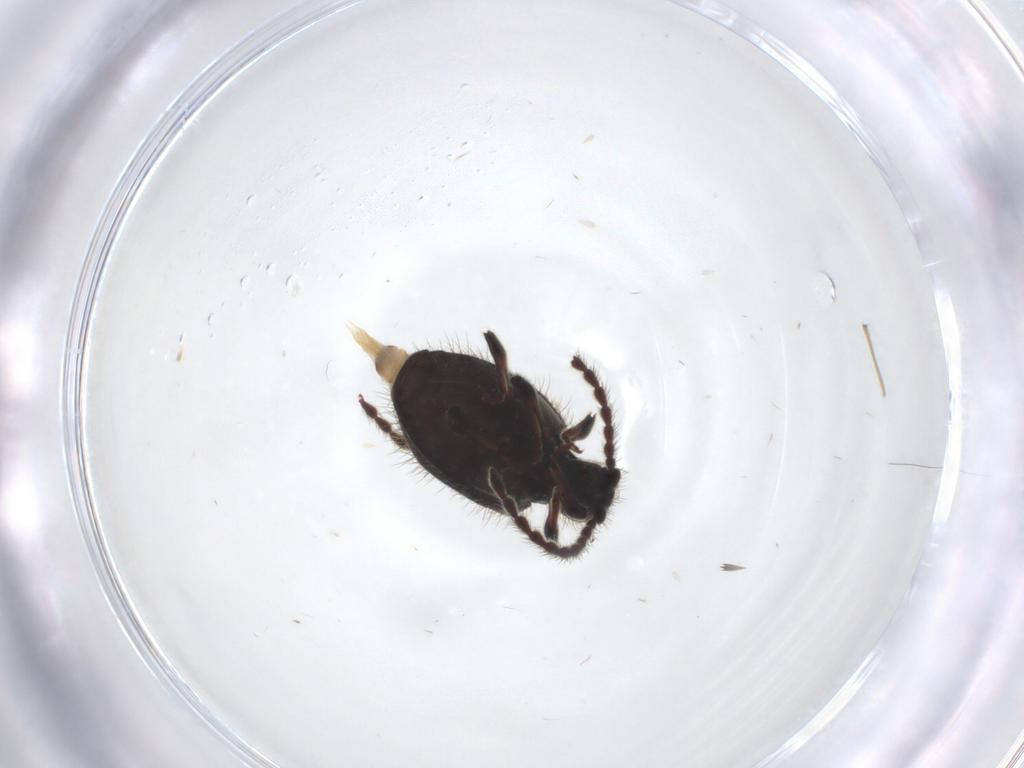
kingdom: Animalia
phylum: Arthropoda
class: Insecta
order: Coleoptera
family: Ptinidae
